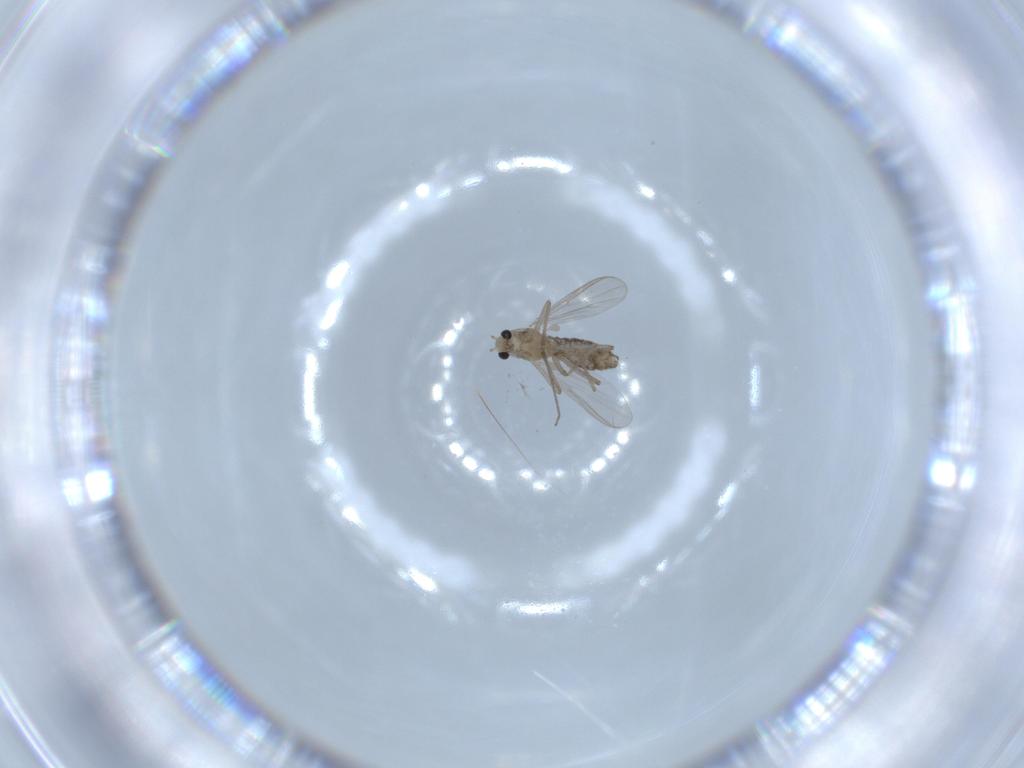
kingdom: Animalia
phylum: Arthropoda
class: Insecta
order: Diptera
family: Chironomidae
